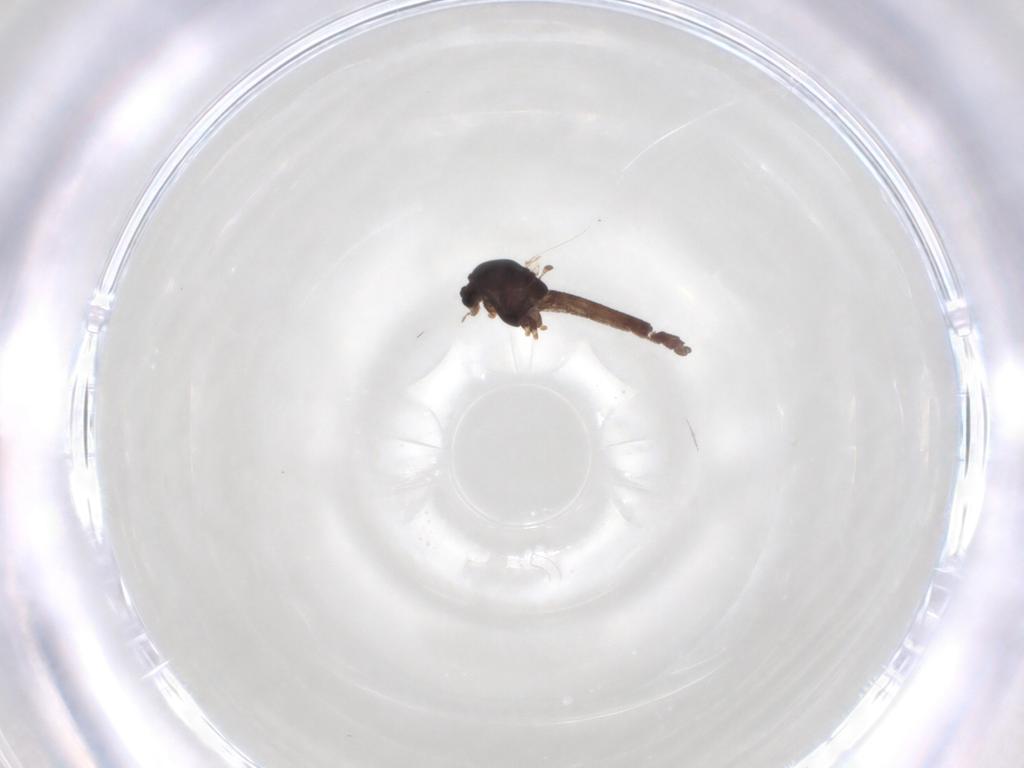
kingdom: Animalia
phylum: Arthropoda
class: Insecta
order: Diptera
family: Chironomidae
